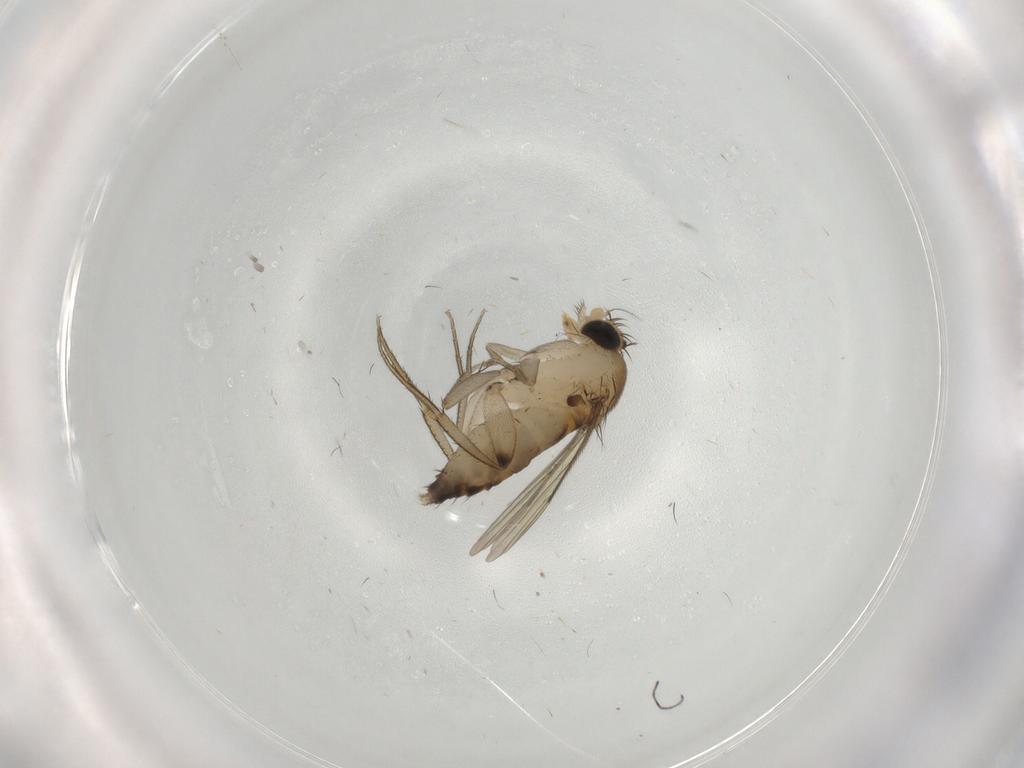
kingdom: Animalia
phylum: Arthropoda
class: Insecta
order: Diptera
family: Phoridae
